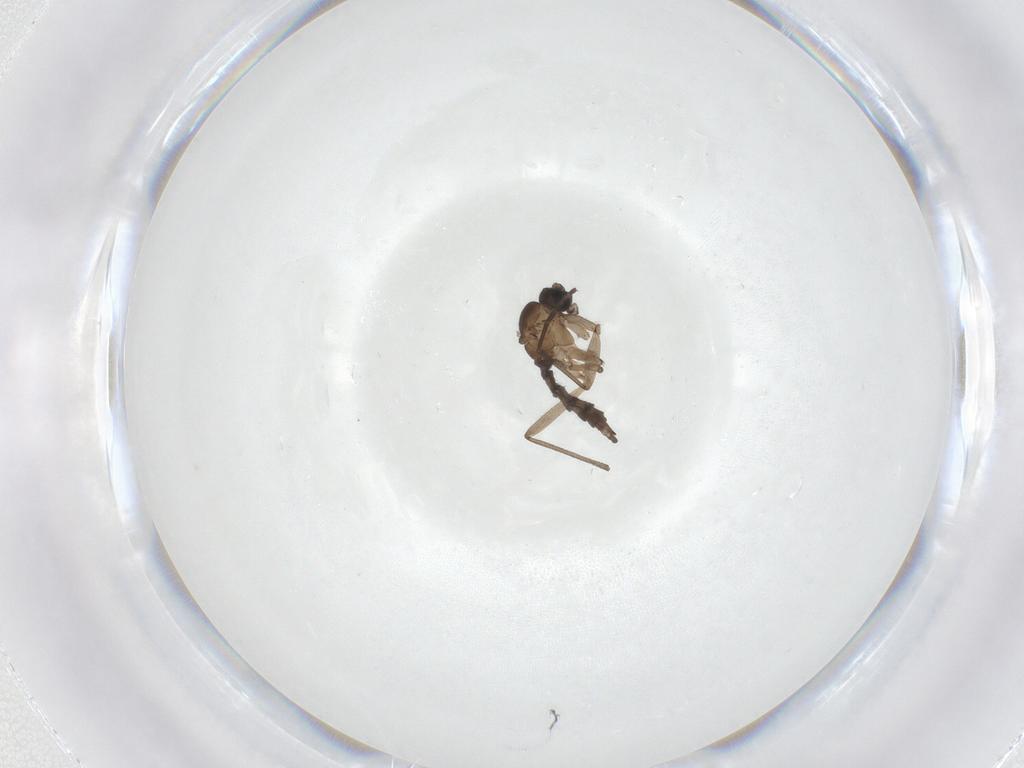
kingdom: Animalia
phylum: Arthropoda
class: Insecta
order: Diptera
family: Sciaridae
